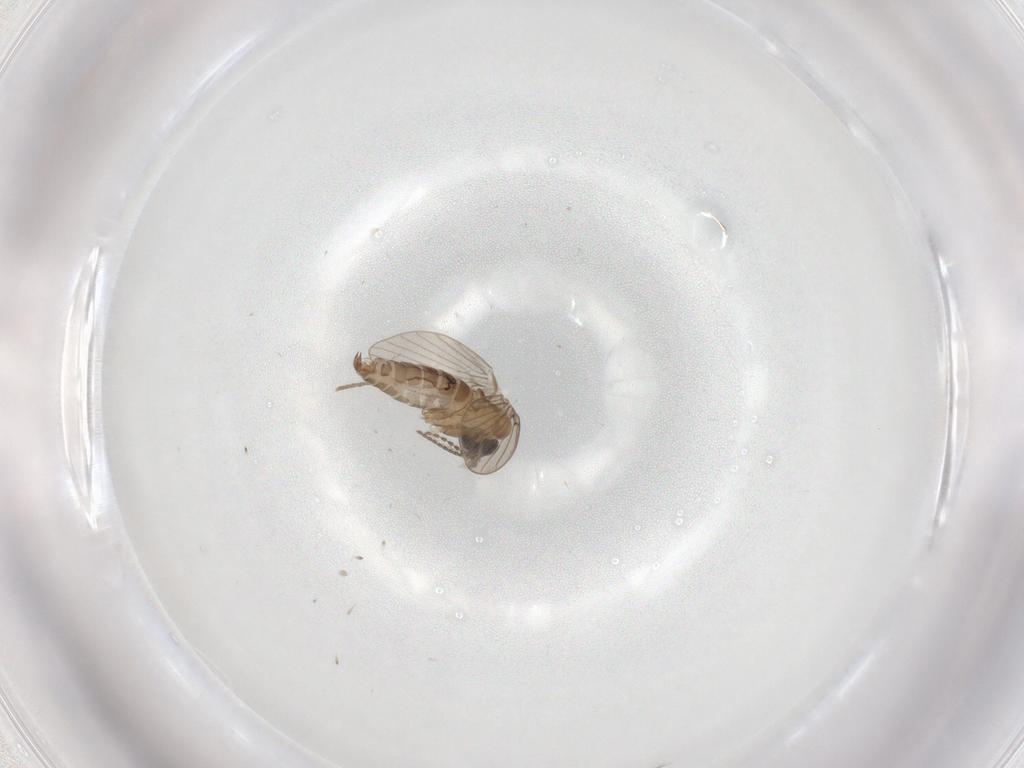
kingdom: Animalia
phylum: Arthropoda
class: Insecta
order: Diptera
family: Cecidomyiidae
